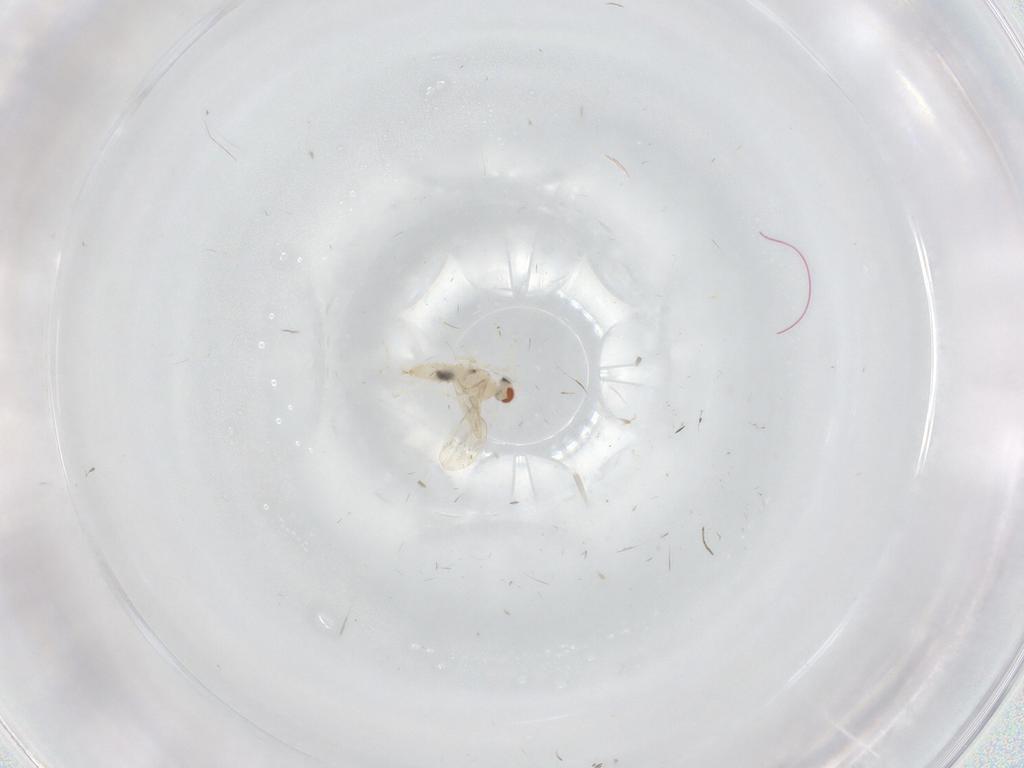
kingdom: Animalia
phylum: Arthropoda
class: Insecta
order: Diptera
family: Cecidomyiidae
